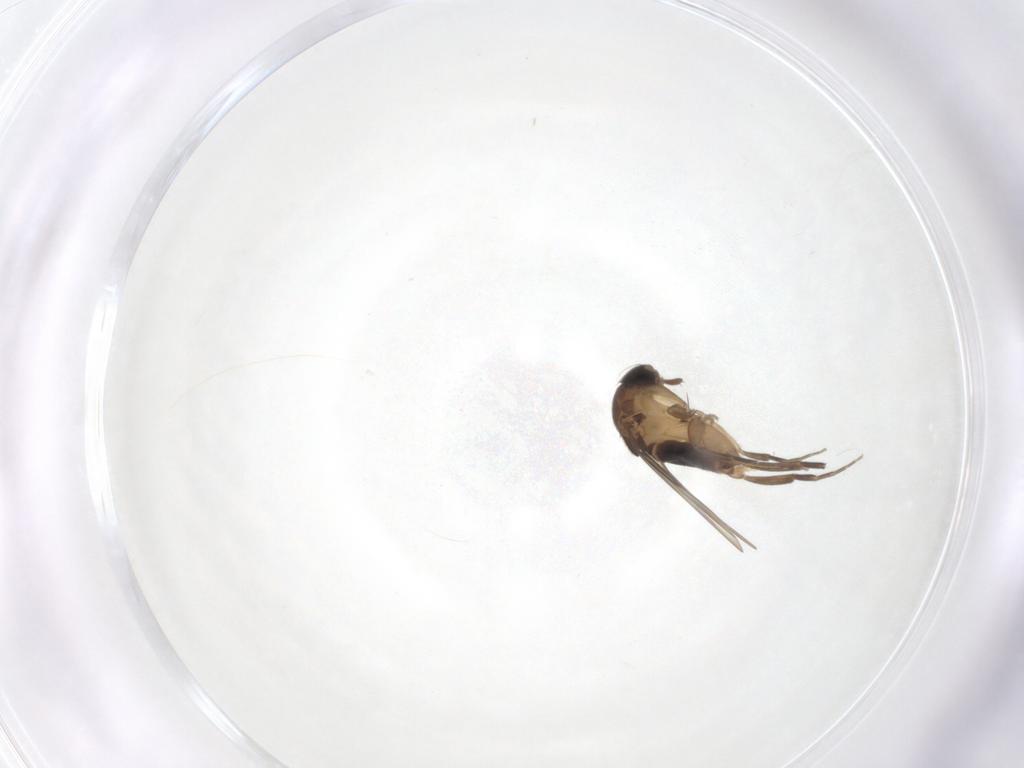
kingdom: Animalia
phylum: Arthropoda
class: Insecta
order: Diptera
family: Phoridae
